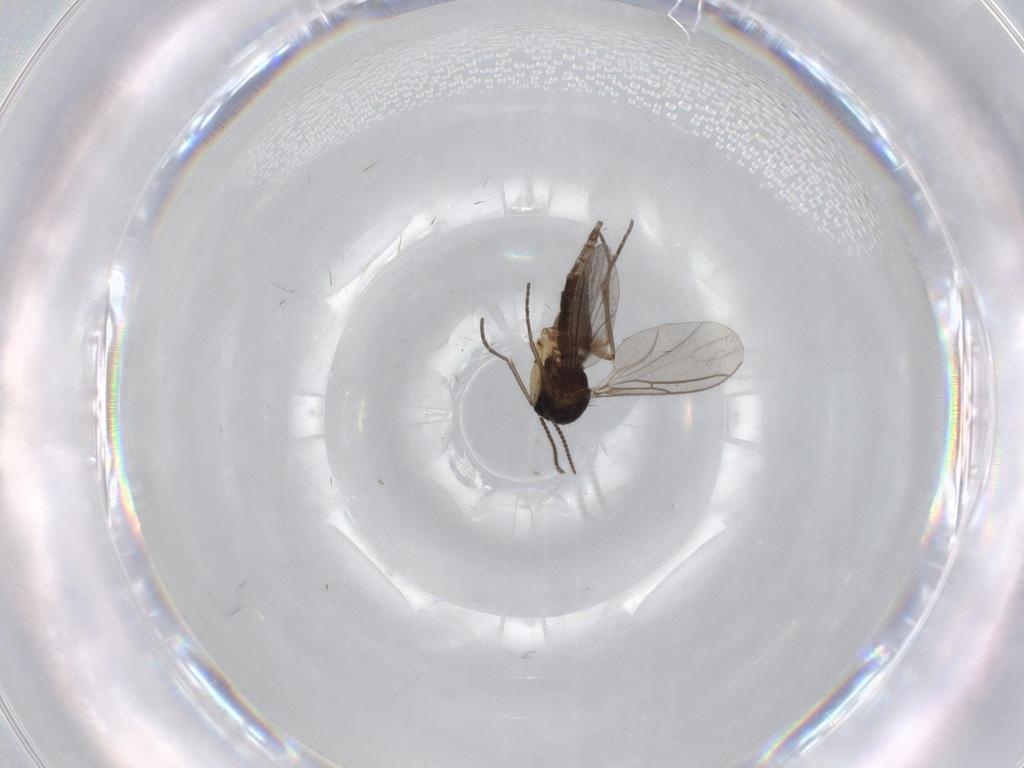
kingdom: Animalia
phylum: Arthropoda
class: Insecta
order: Diptera
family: Sciaridae
